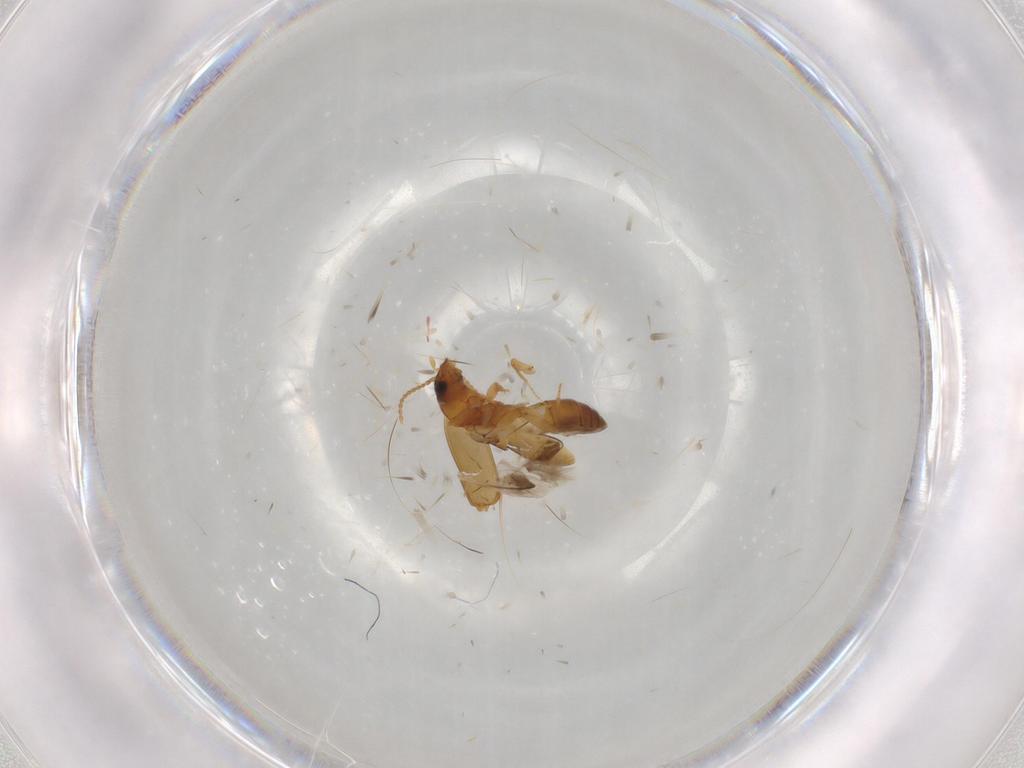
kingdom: Animalia
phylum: Arthropoda
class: Insecta
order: Coleoptera
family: Carabidae
